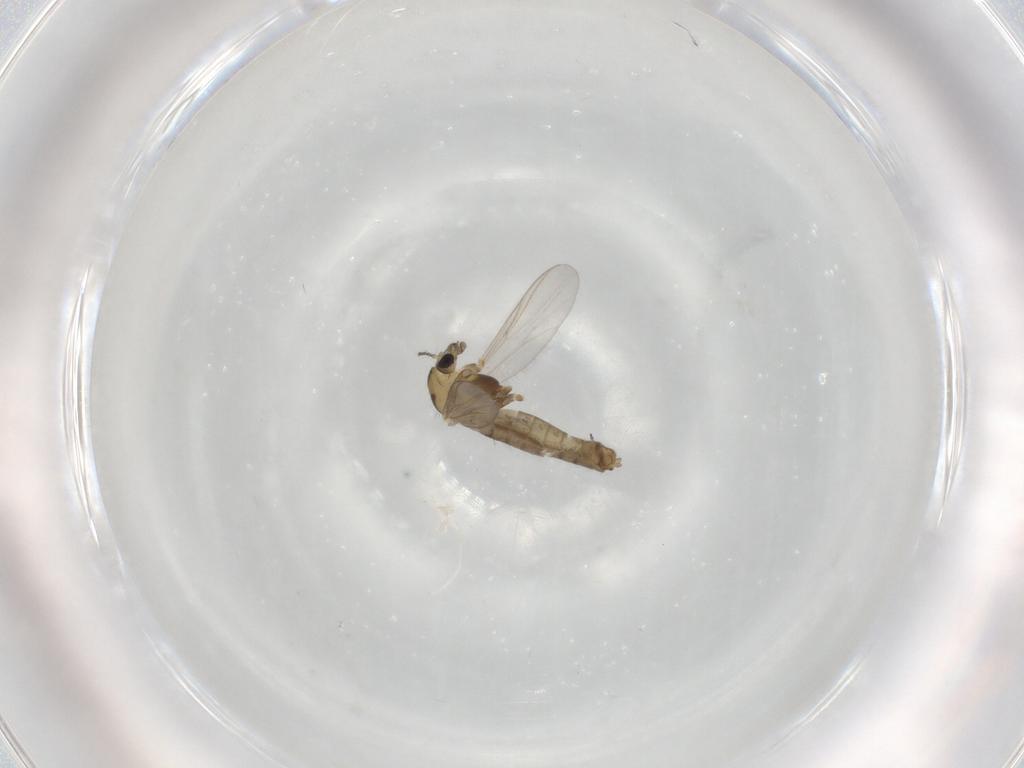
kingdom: Animalia
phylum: Arthropoda
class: Insecta
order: Diptera
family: Chironomidae
